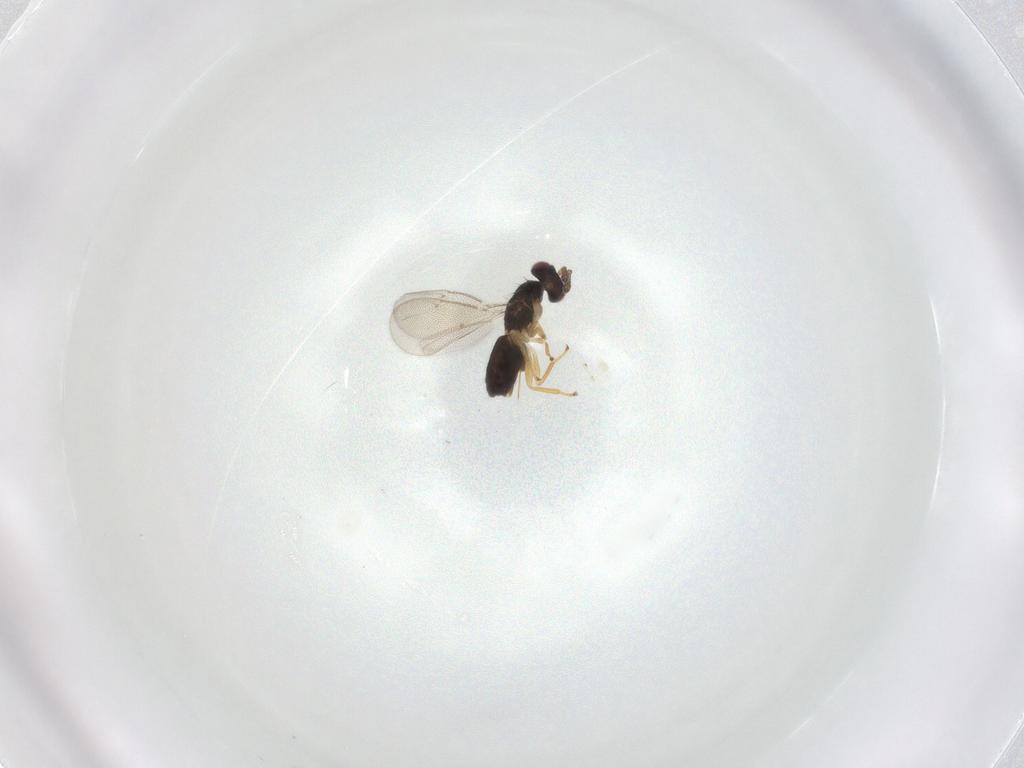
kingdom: Animalia
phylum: Arthropoda
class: Insecta
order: Hymenoptera
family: Eulophidae
